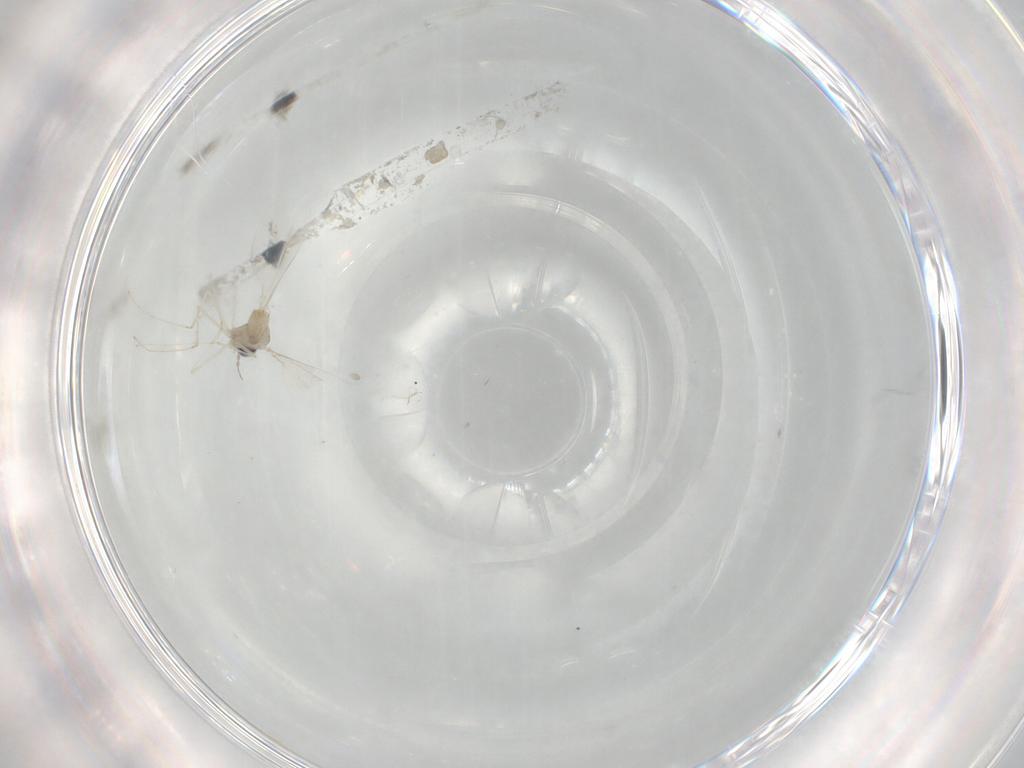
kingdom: Animalia
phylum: Arthropoda
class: Insecta
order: Diptera
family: Cecidomyiidae
